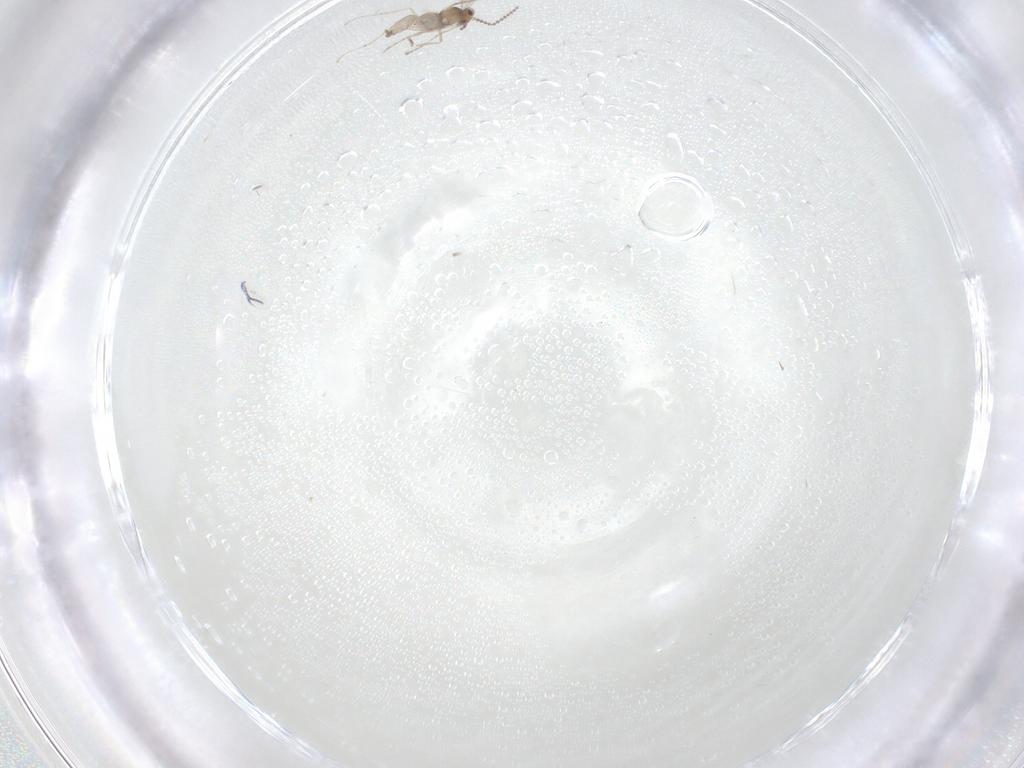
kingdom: Animalia
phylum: Arthropoda
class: Insecta
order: Diptera
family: Cecidomyiidae
